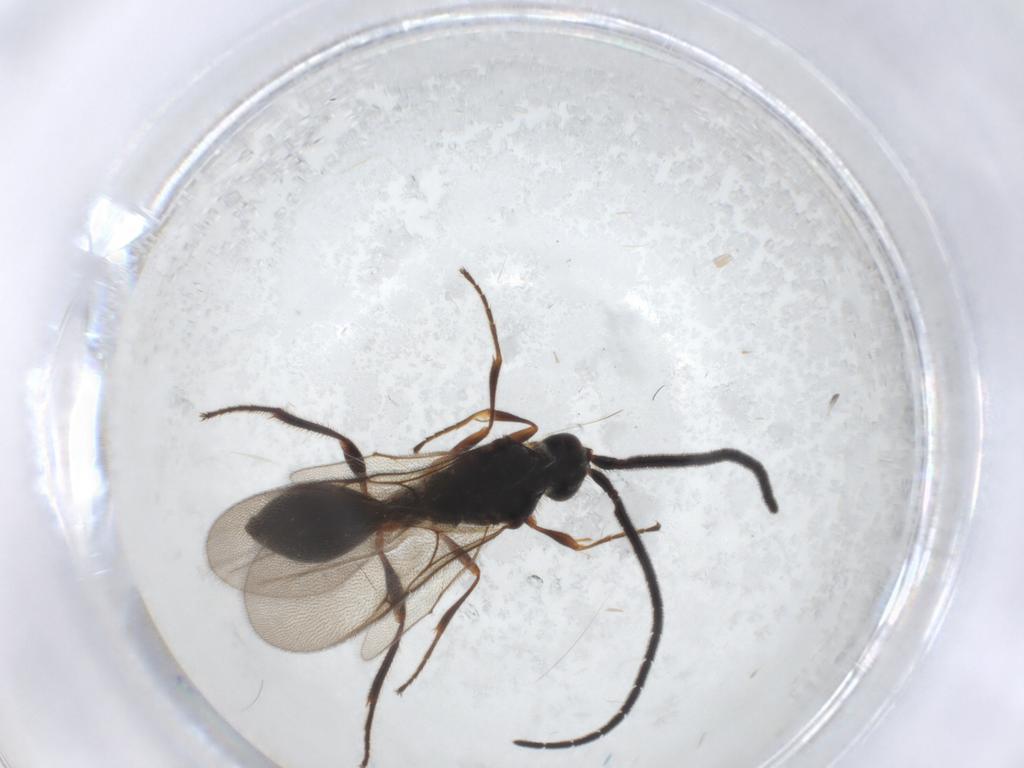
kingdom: Animalia
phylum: Arthropoda
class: Insecta
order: Hymenoptera
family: Diapriidae
